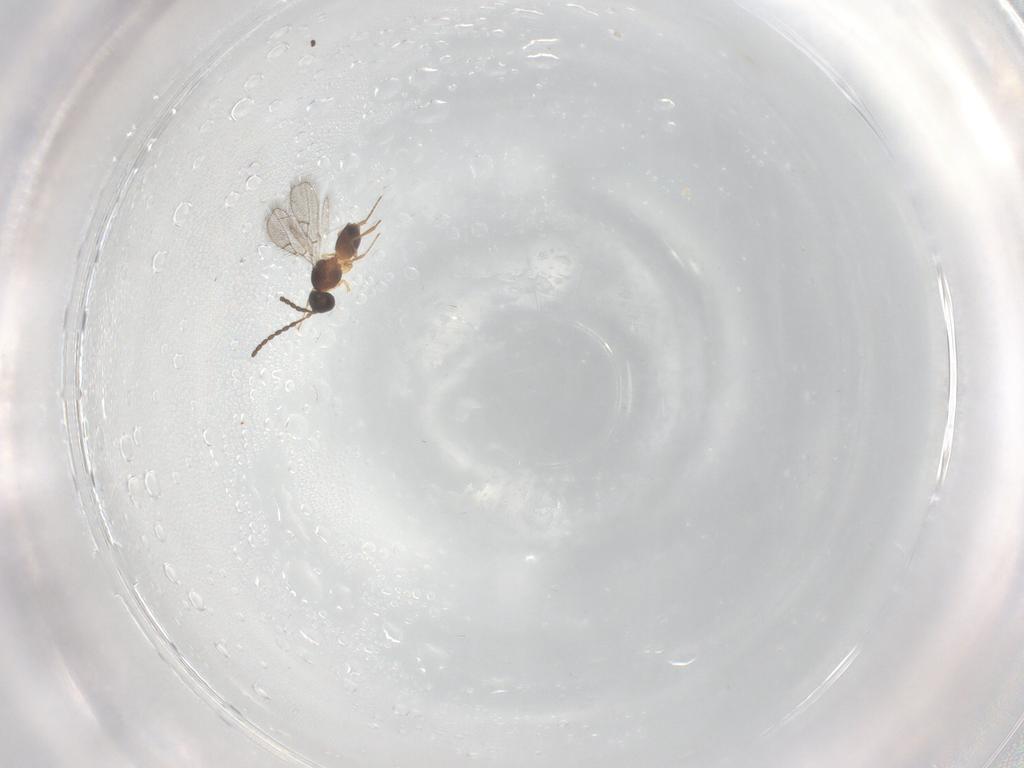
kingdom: Animalia
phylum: Arthropoda
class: Insecta
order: Hymenoptera
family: Figitidae
